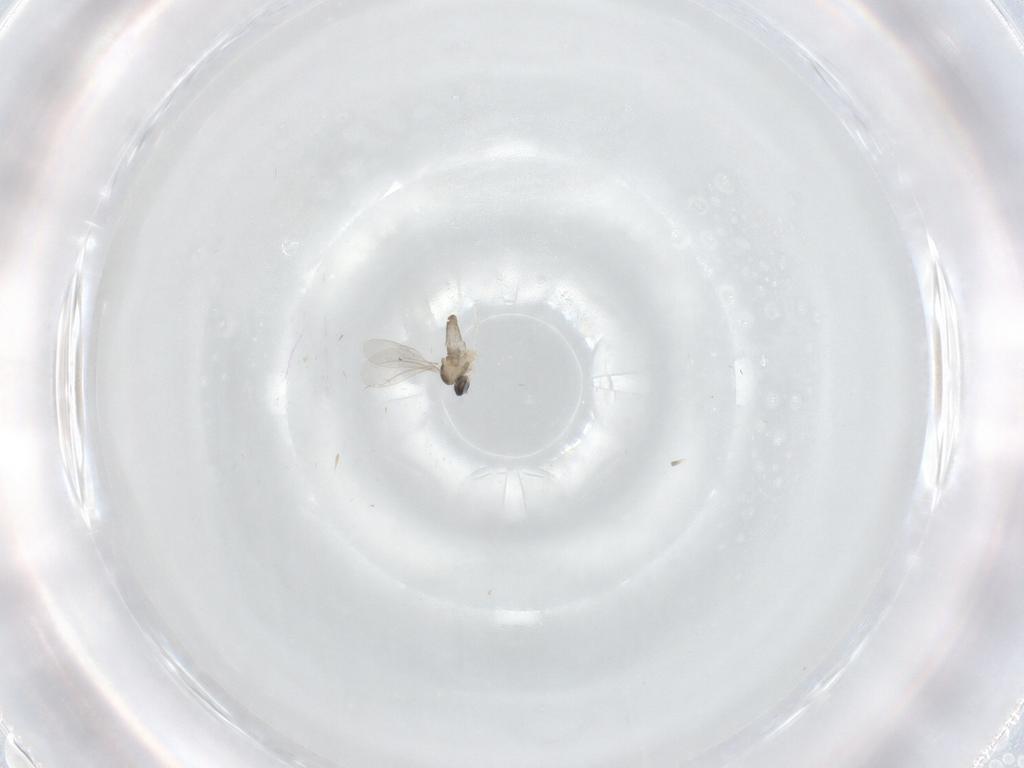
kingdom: Animalia
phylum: Arthropoda
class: Insecta
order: Diptera
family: Cecidomyiidae
